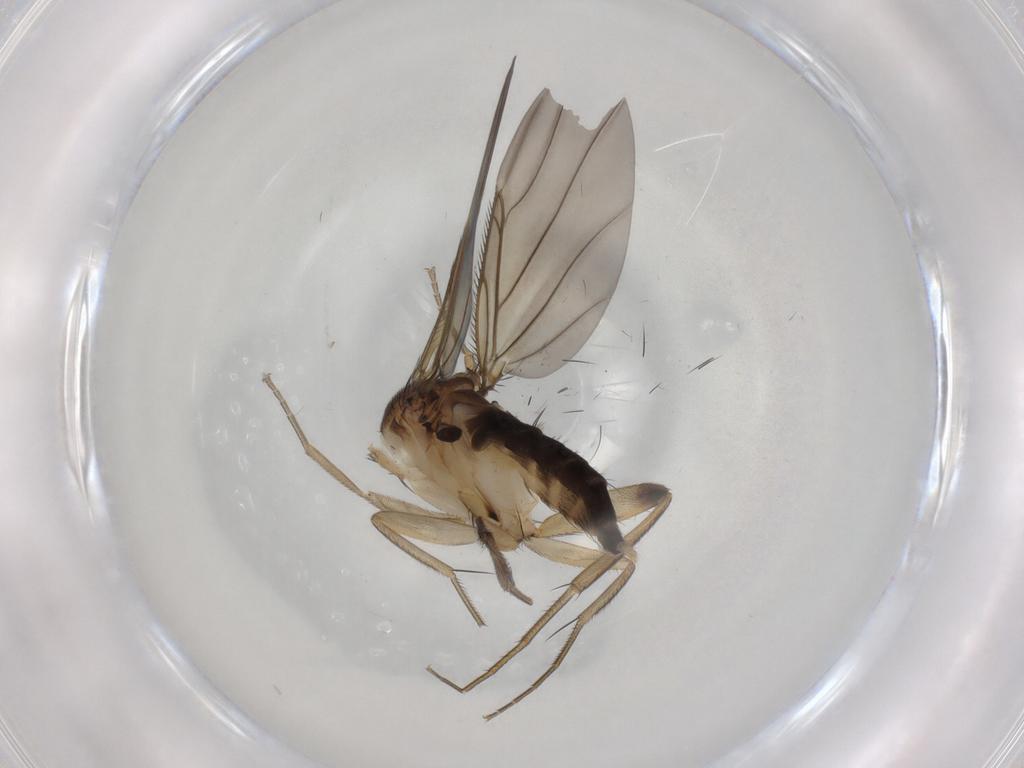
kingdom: Animalia
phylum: Arthropoda
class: Insecta
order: Diptera
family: Phoridae
